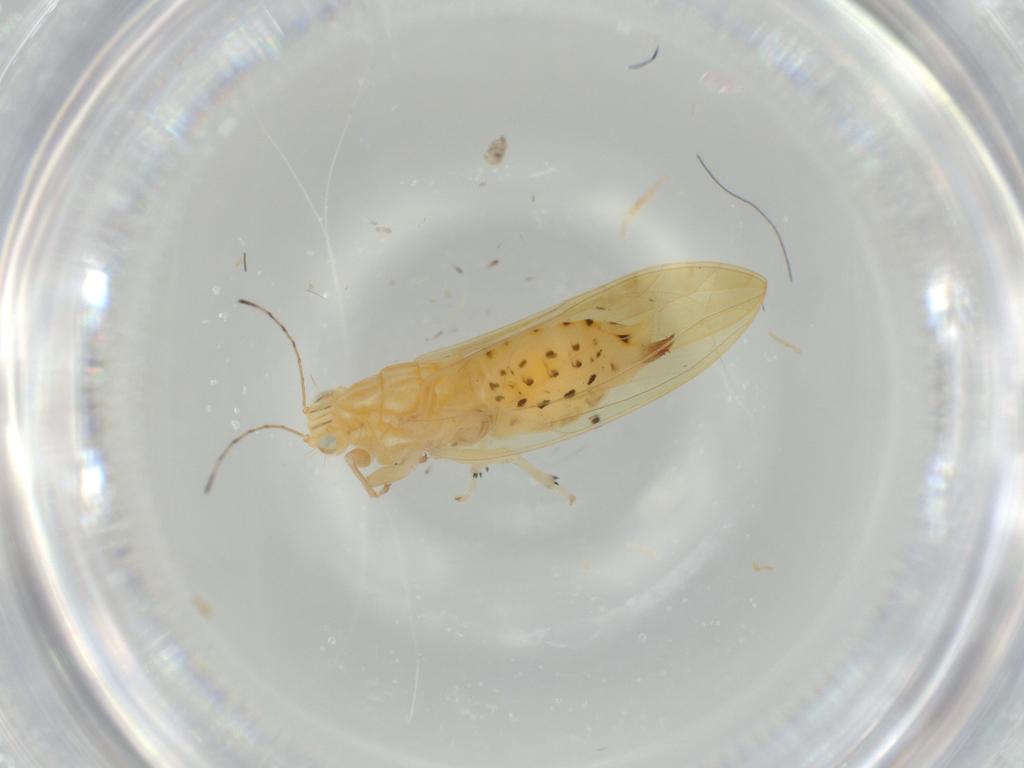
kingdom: Animalia
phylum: Arthropoda
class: Insecta
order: Hemiptera
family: Triozidae
